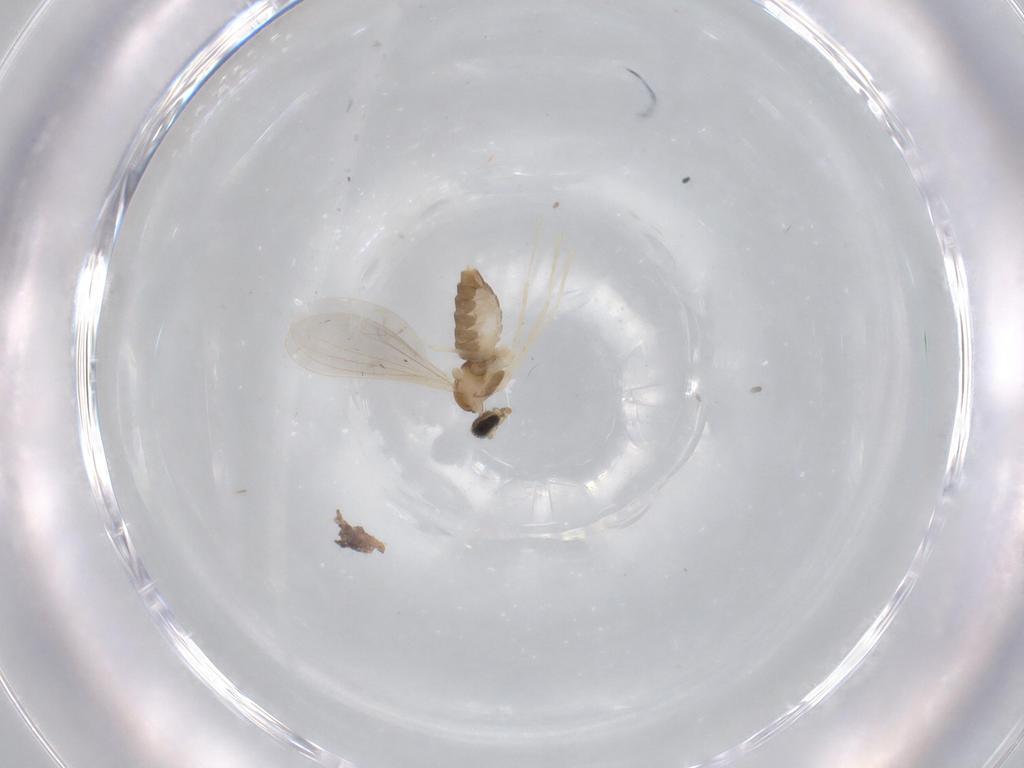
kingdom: Animalia
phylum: Arthropoda
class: Insecta
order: Diptera
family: Cecidomyiidae
